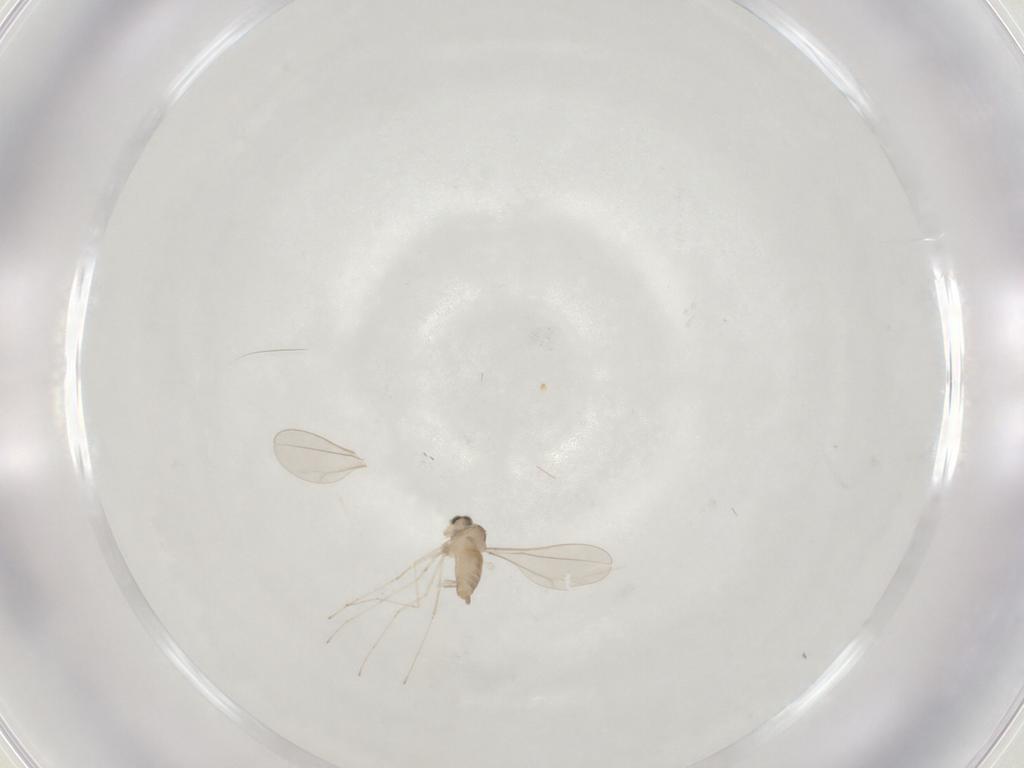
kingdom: Animalia
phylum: Arthropoda
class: Insecta
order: Diptera
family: Cecidomyiidae
